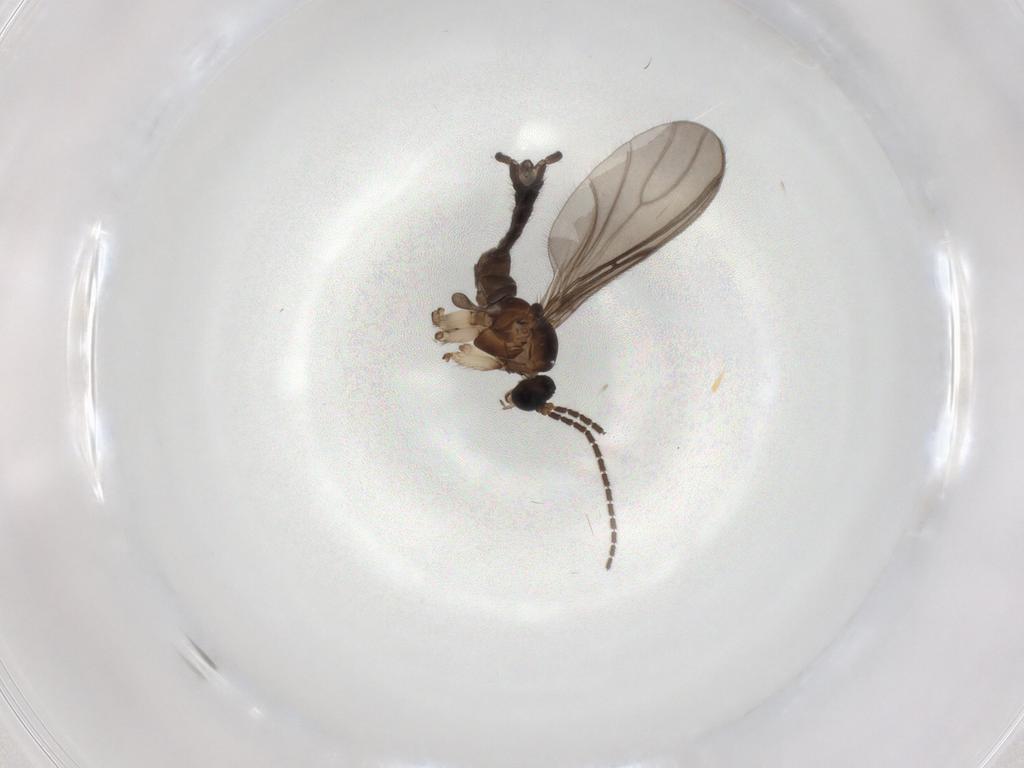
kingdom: Animalia
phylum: Arthropoda
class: Insecta
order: Diptera
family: Sciaridae
